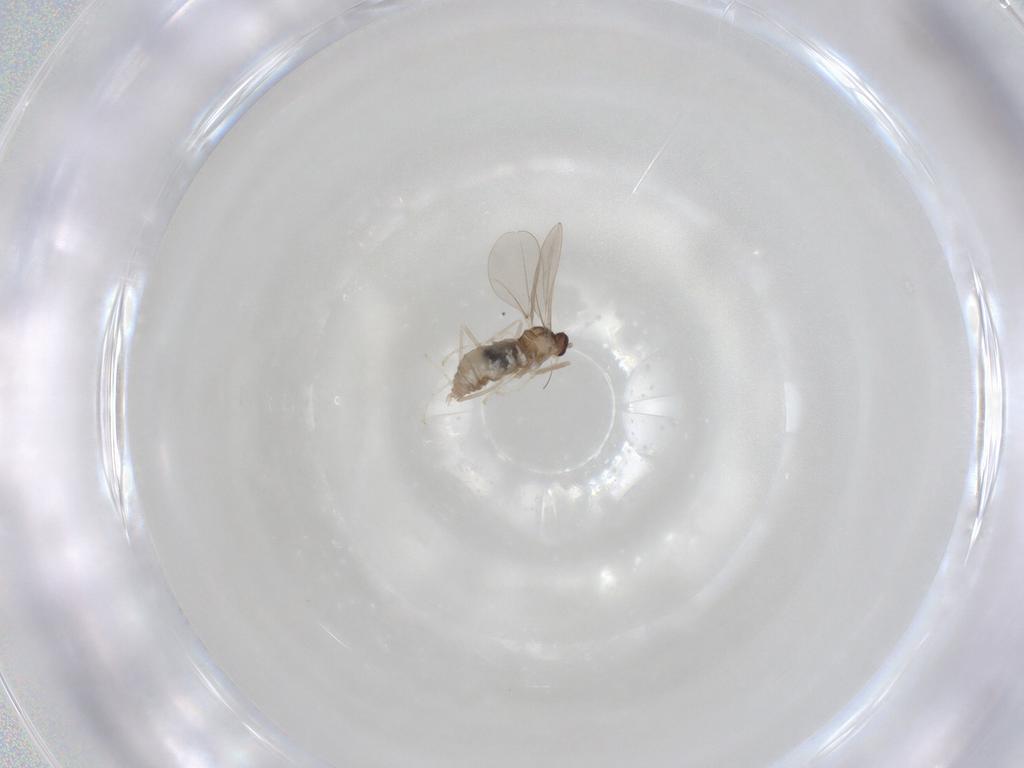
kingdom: Animalia
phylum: Arthropoda
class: Insecta
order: Diptera
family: Cecidomyiidae
